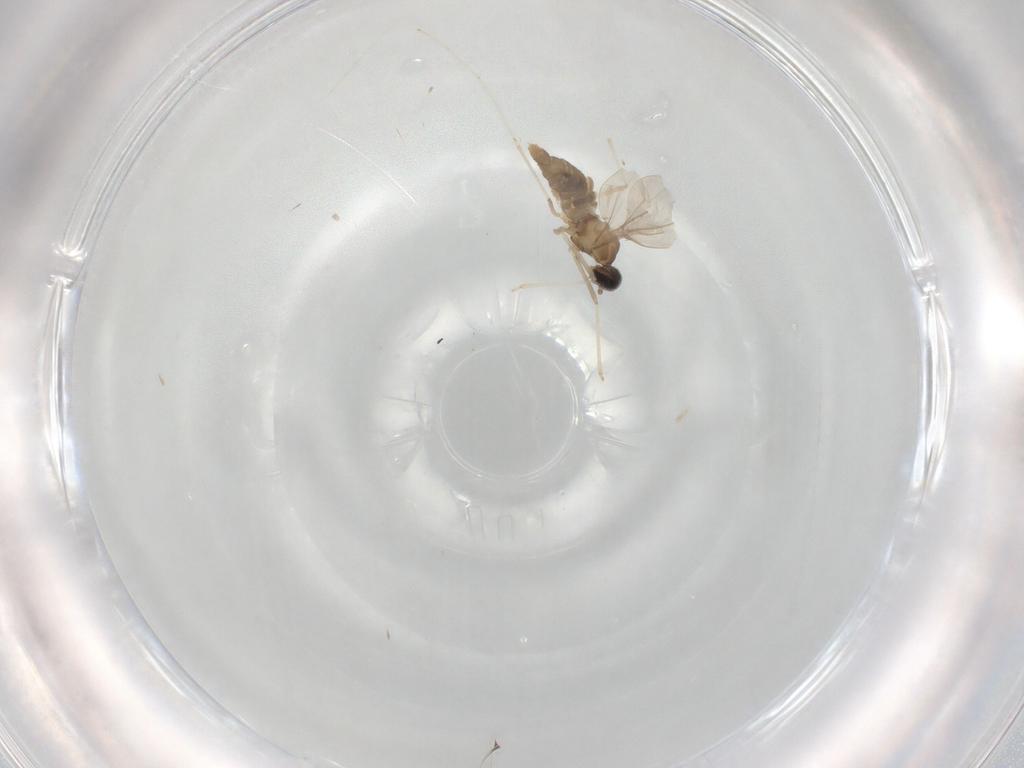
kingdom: Animalia
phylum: Arthropoda
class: Insecta
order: Diptera
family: Cecidomyiidae
